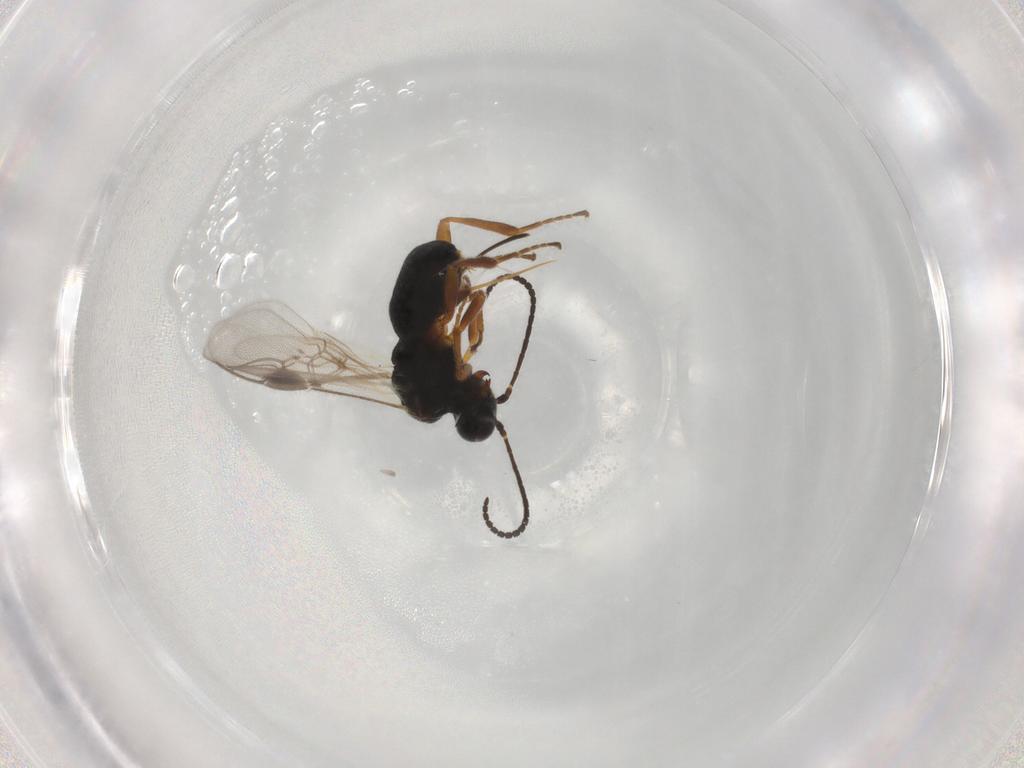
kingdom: Animalia
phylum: Arthropoda
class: Insecta
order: Hymenoptera
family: Braconidae
